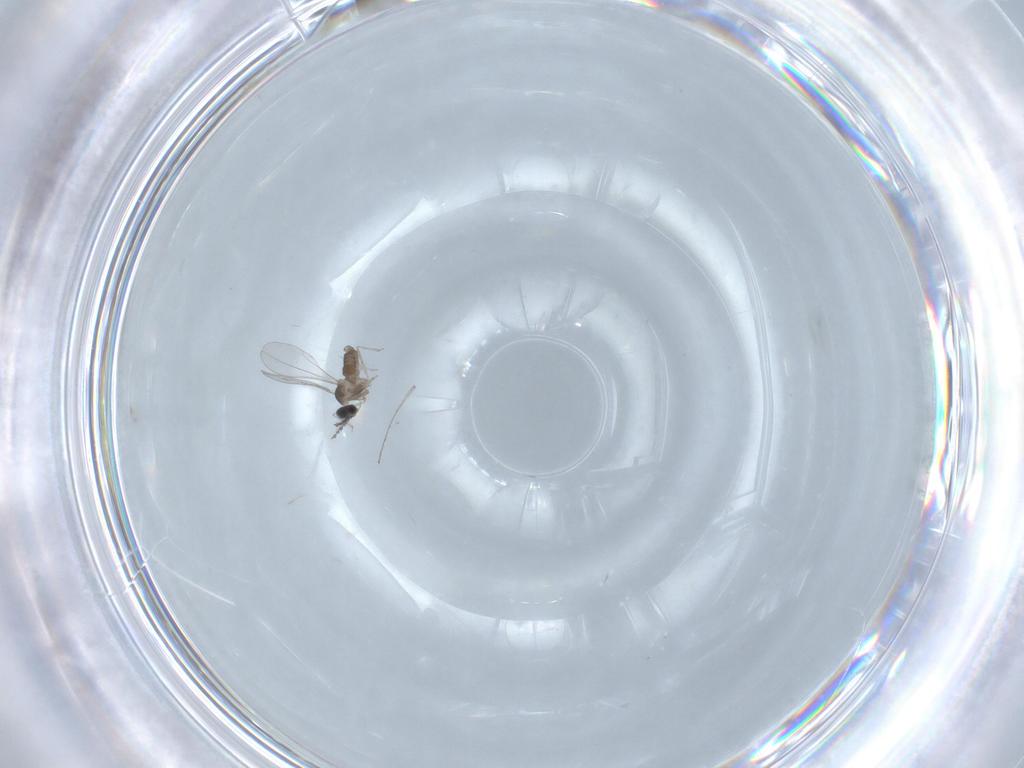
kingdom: Animalia
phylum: Arthropoda
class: Insecta
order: Diptera
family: Cecidomyiidae
